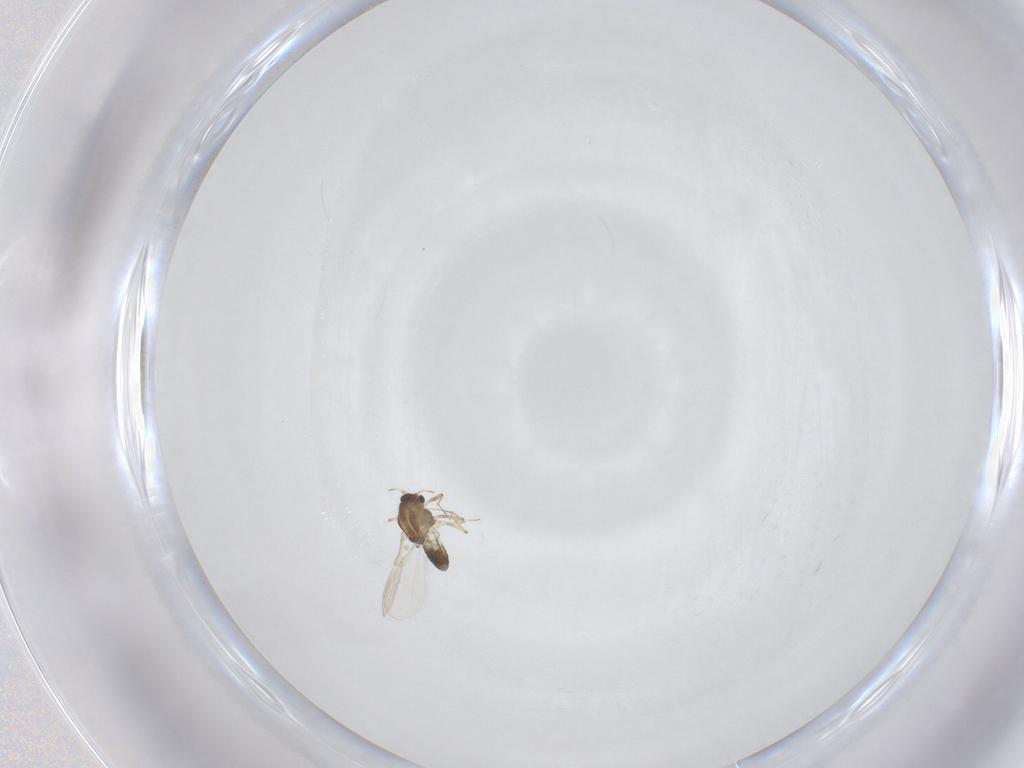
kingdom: Animalia
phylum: Arthropoda
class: Insecta
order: Diptera
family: Chironomidae
